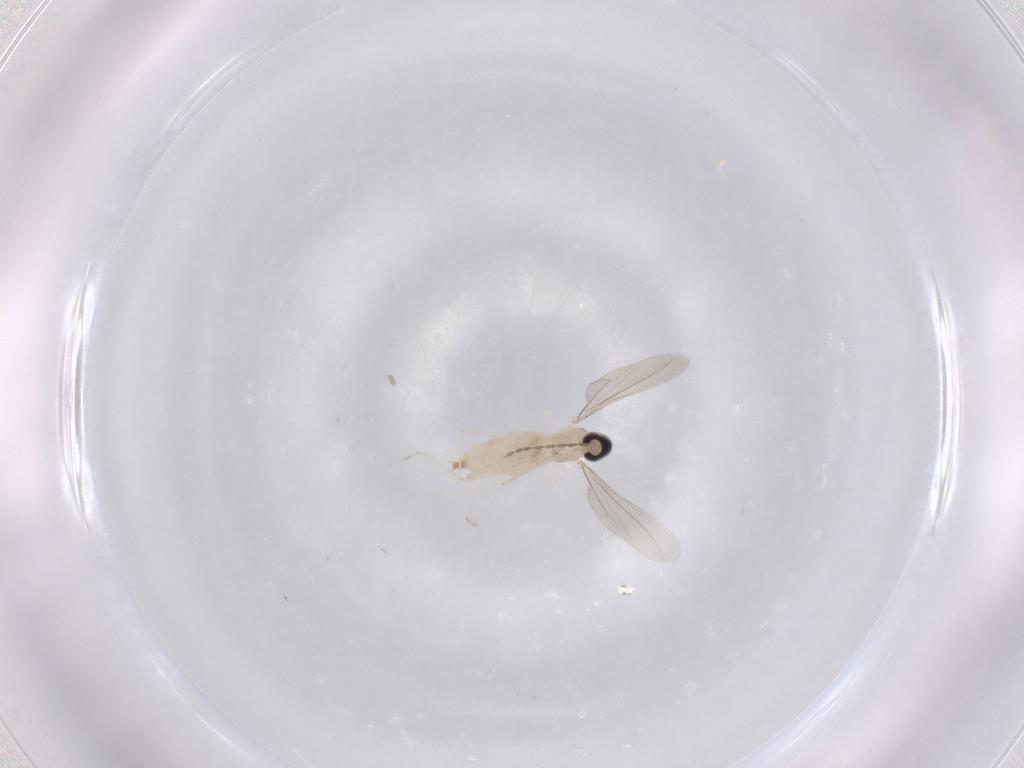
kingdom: Animalia
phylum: Arthropoda
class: Insecta
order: Diptera
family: Cecidomyiidae
